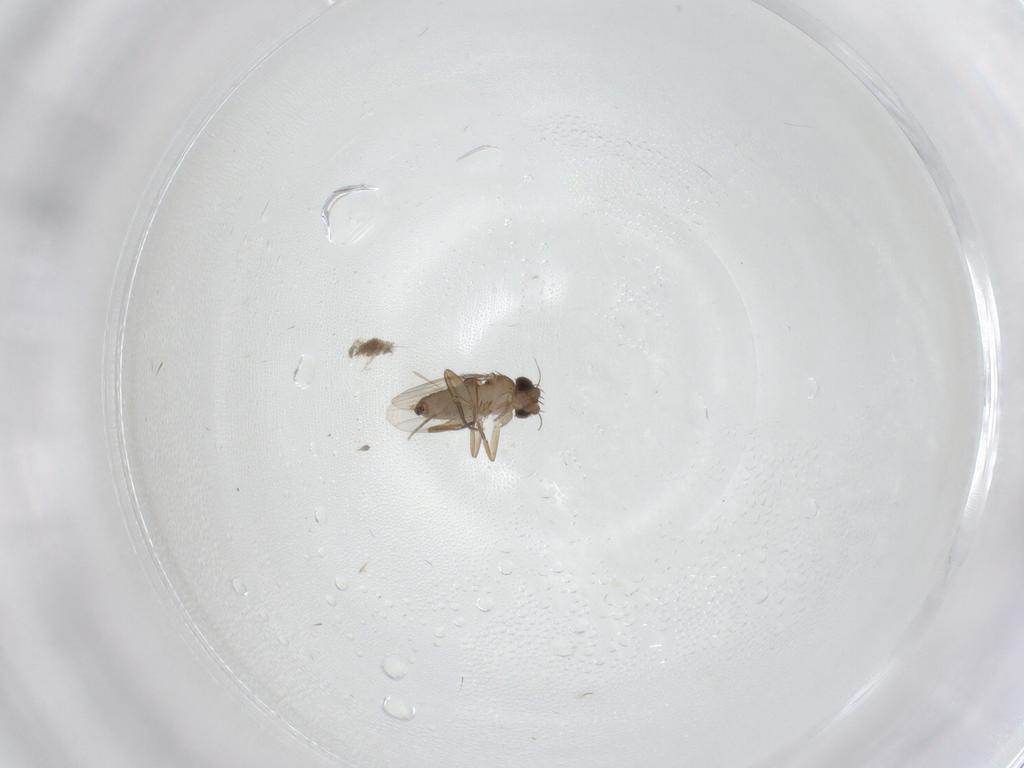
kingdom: Animalia
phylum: Arthropoda
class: Insecta
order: Diptera
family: Phoridae
